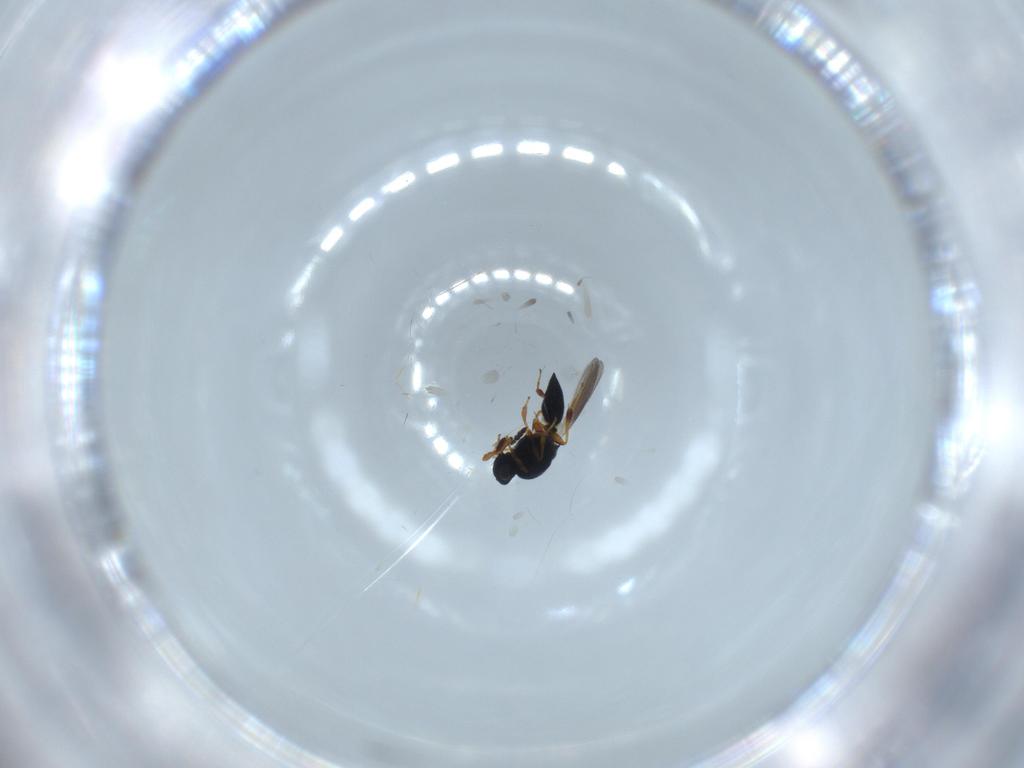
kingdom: Animalia
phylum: Arthropoda
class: Insecta
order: Hymenoptera
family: Platygastridae
